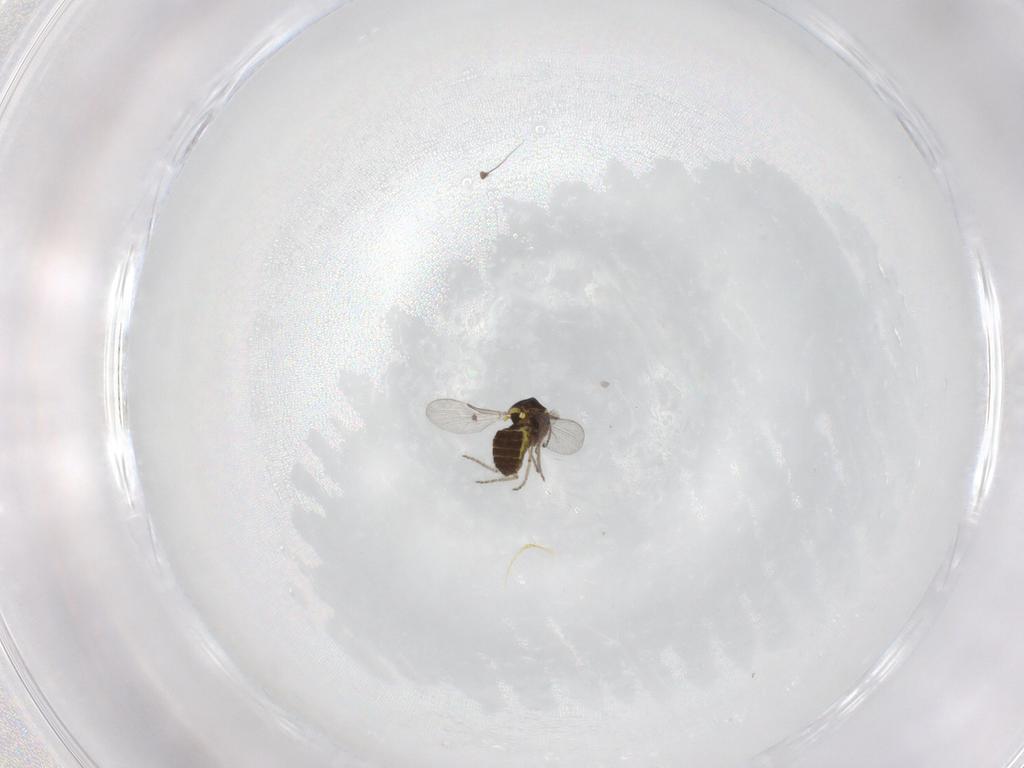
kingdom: Animalia
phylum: Arthropoda
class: Insecta
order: Diptera
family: Ceratopogonidae
